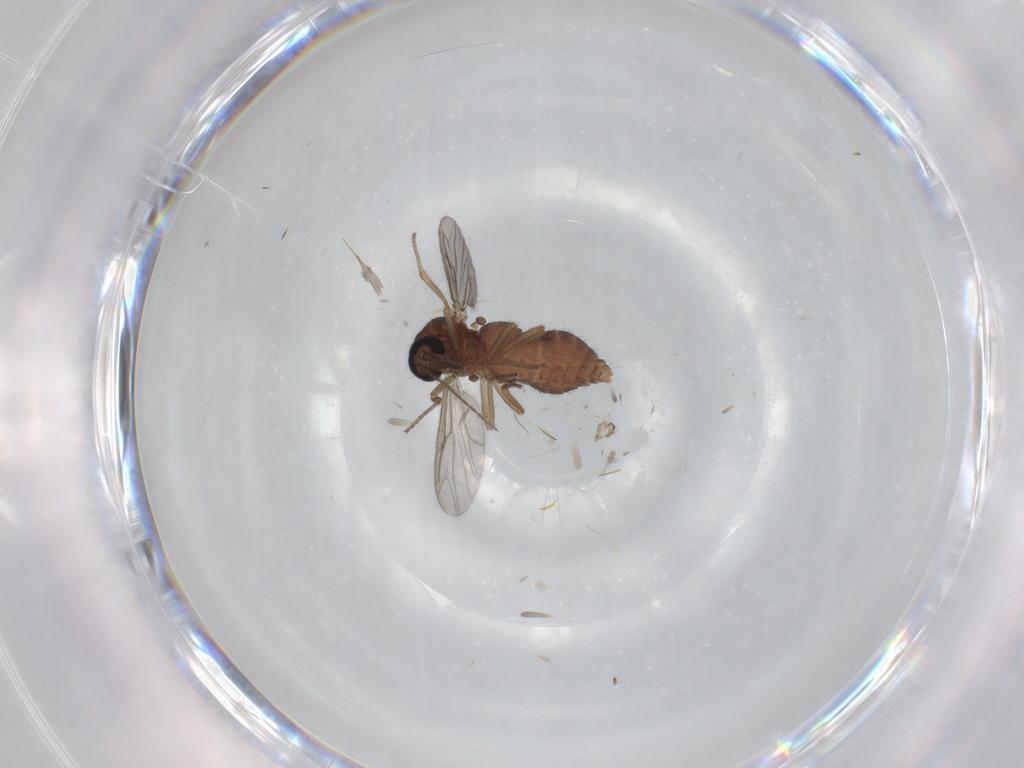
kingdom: Animalia
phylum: Arthropoda
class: Insecta
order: Diptera
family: Ceratopogonidae
